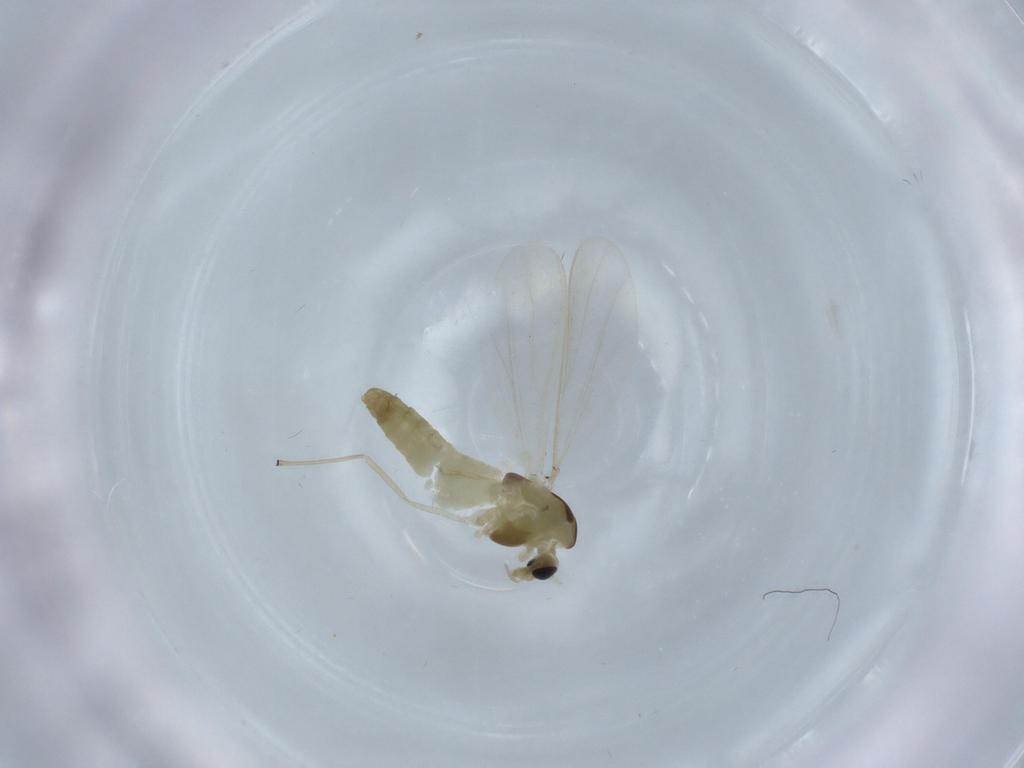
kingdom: Animalia
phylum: Arthropoda
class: Insecta
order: Diptera
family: Chironomidae
